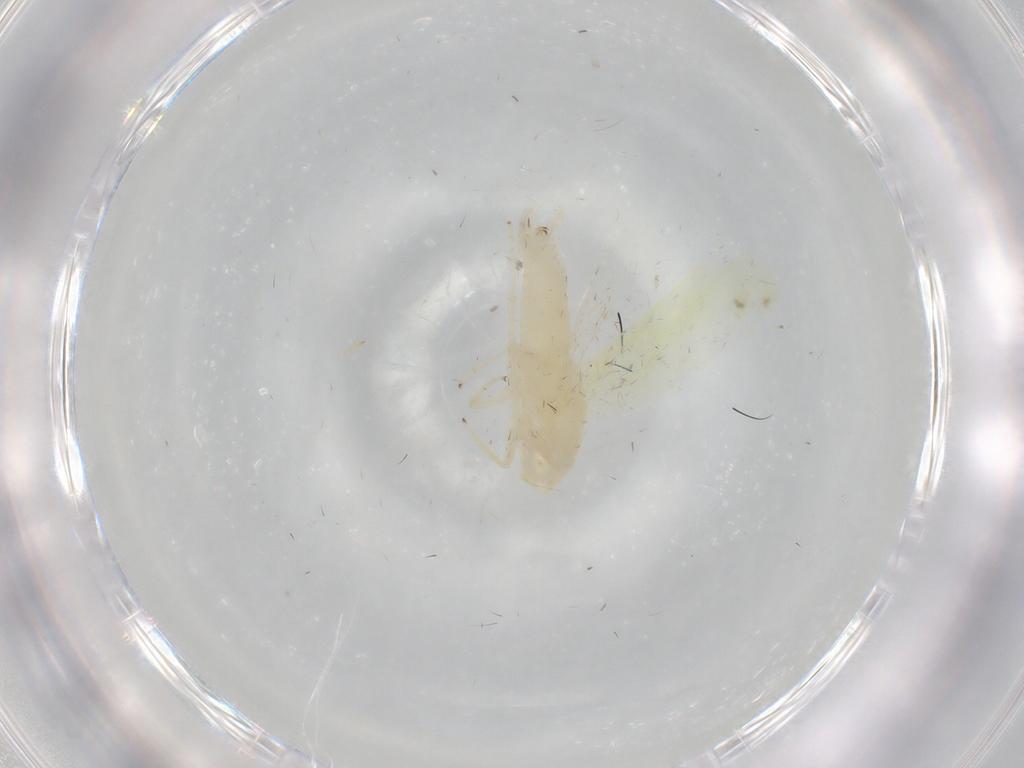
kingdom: Animalia
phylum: Arthropoda
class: Insecta
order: Hemiptera
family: Cicadellidae
